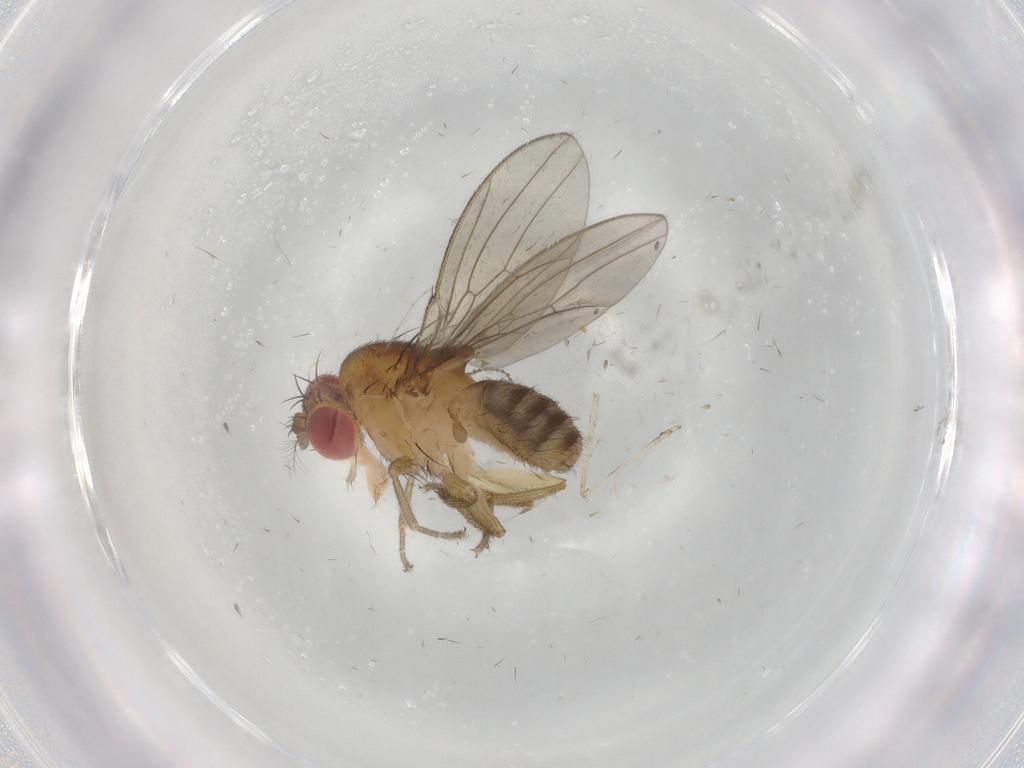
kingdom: Animalia
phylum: Arthropoda
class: Insecta
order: Diptera
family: Drosophilidae
